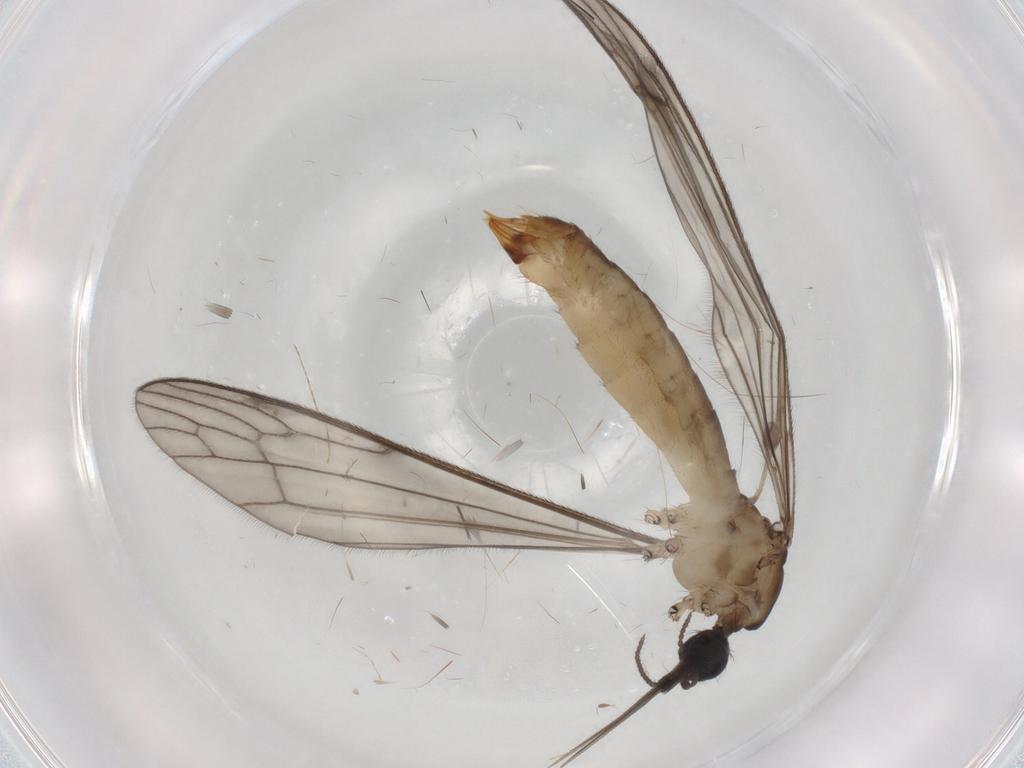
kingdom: Animalia
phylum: Arthropoda
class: Insecta
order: Diptera
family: Limoniidae
